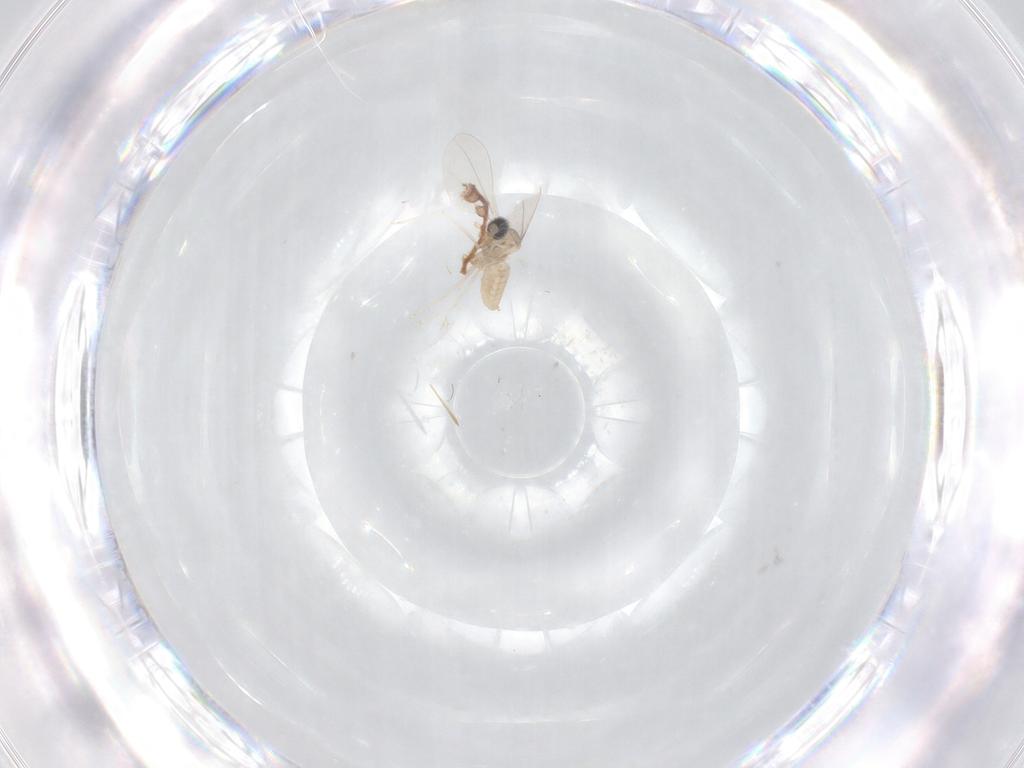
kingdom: Animalia
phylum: Arthropoda
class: Insecta
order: Diptera
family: Cecidomyiidae
